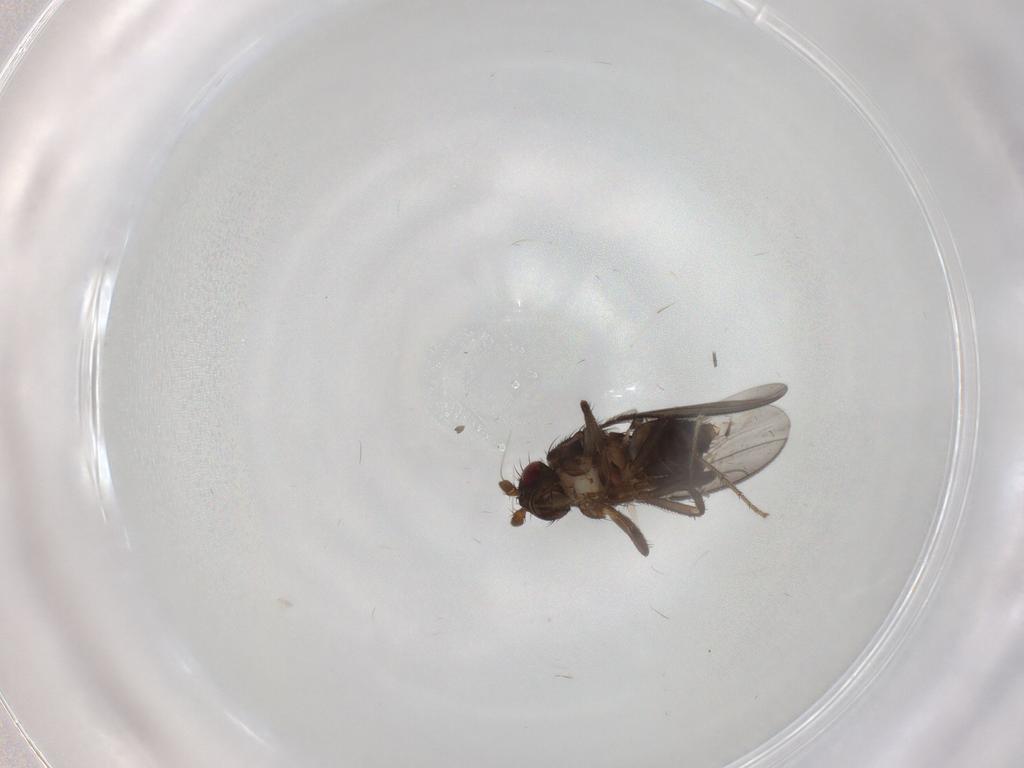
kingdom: Animalia
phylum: Arthropoda
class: Insecta
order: Diptera
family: Sphaeroceridae
